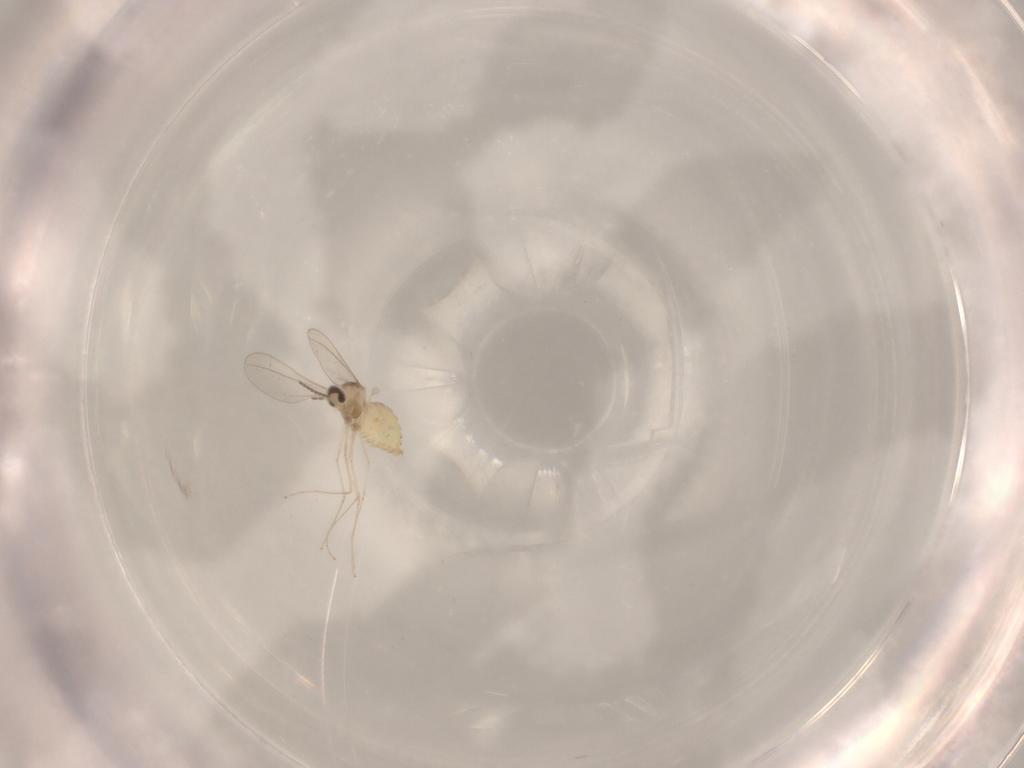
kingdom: Animalia
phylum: Arthropoda
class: Insecta
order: Diptera
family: Cecidomyiidae
